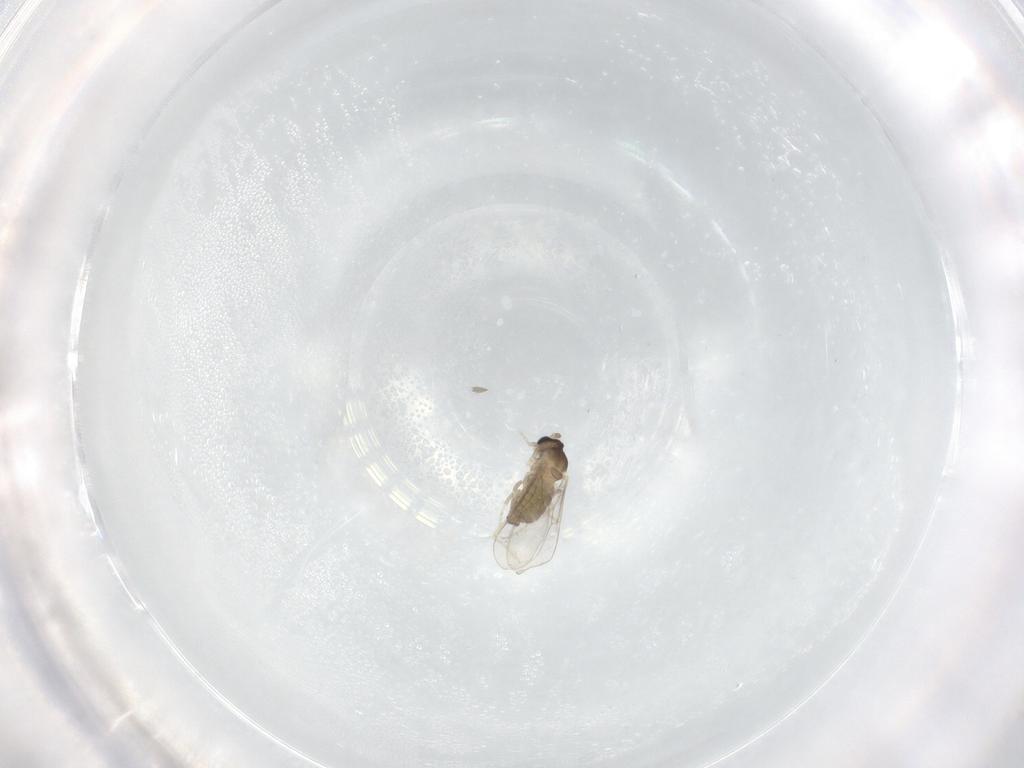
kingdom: Animalia
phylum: Arthropoda
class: Insecta
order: Diptera
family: Cecidomyiidae
